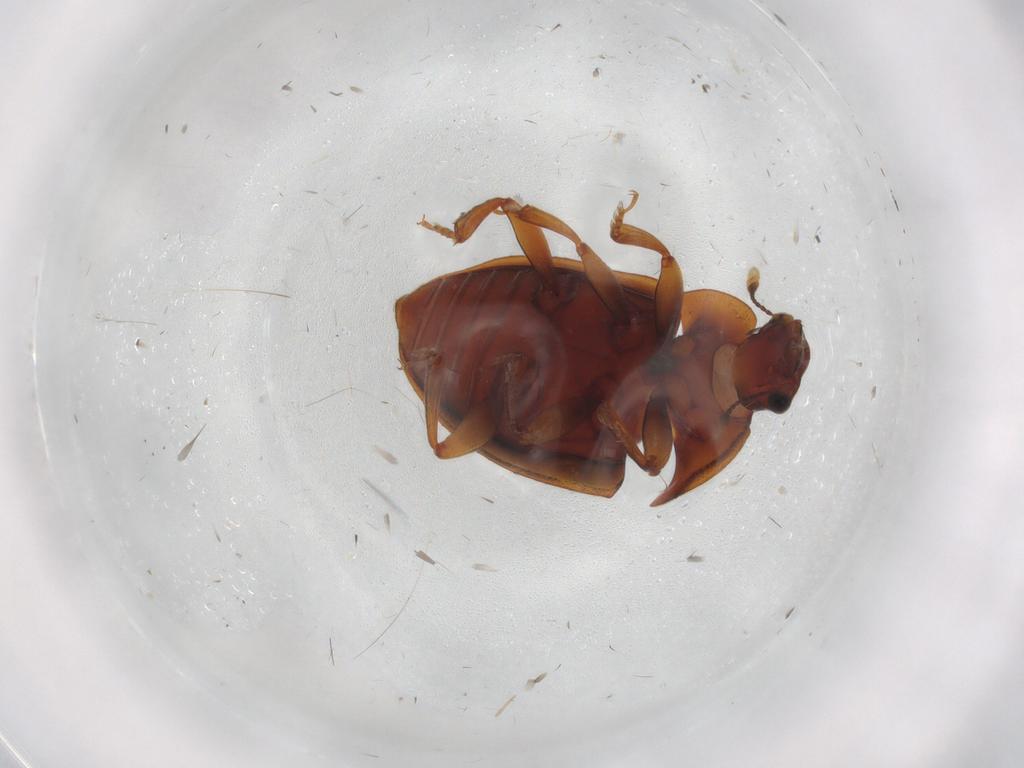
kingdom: Animalia
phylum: Arthropoda
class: Insecta
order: Coleoptera
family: Nitidulidae
